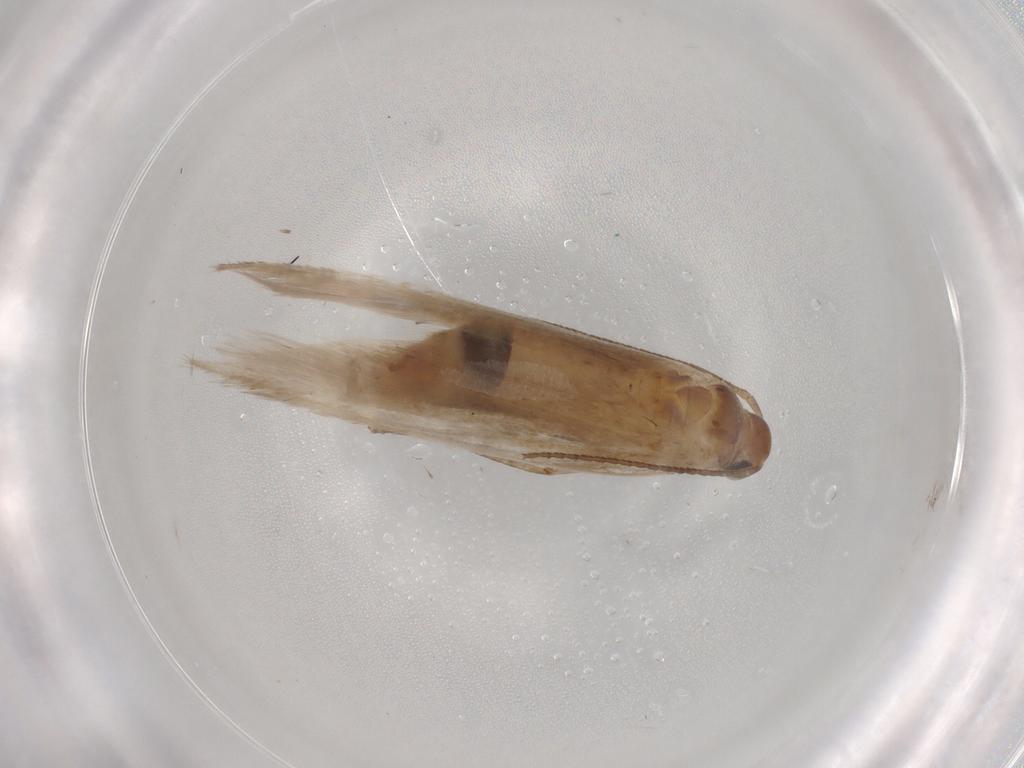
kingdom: Animalia
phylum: Arthropoda
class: Insecta
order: Lepidoptera
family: Gelechiidae
